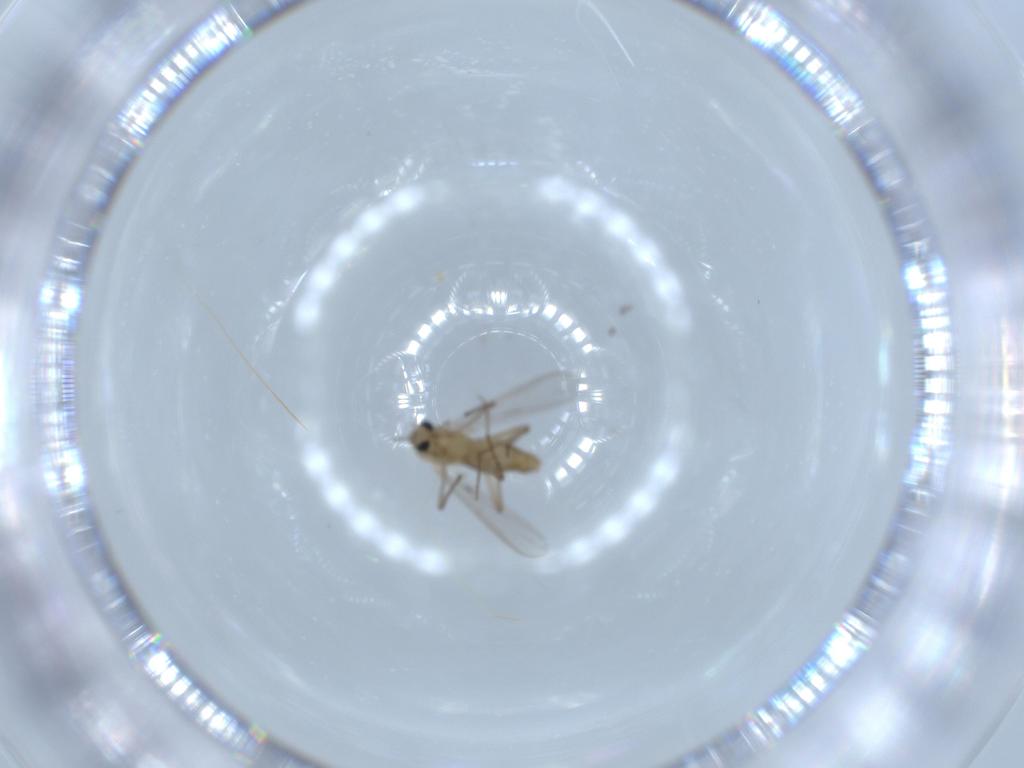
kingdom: Animalia
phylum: Arthropoda
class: Insecta
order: Diptera
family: Chironomidae
